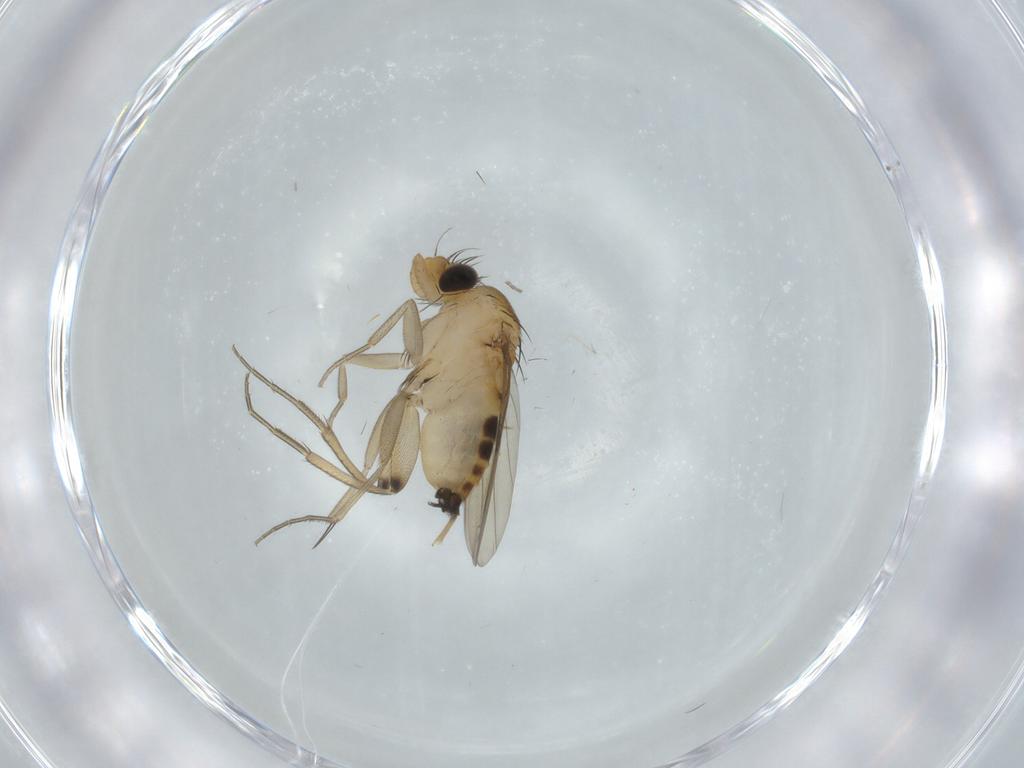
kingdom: Animalia
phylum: Arthropoda
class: Insecta
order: Diptera
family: Phoridae
